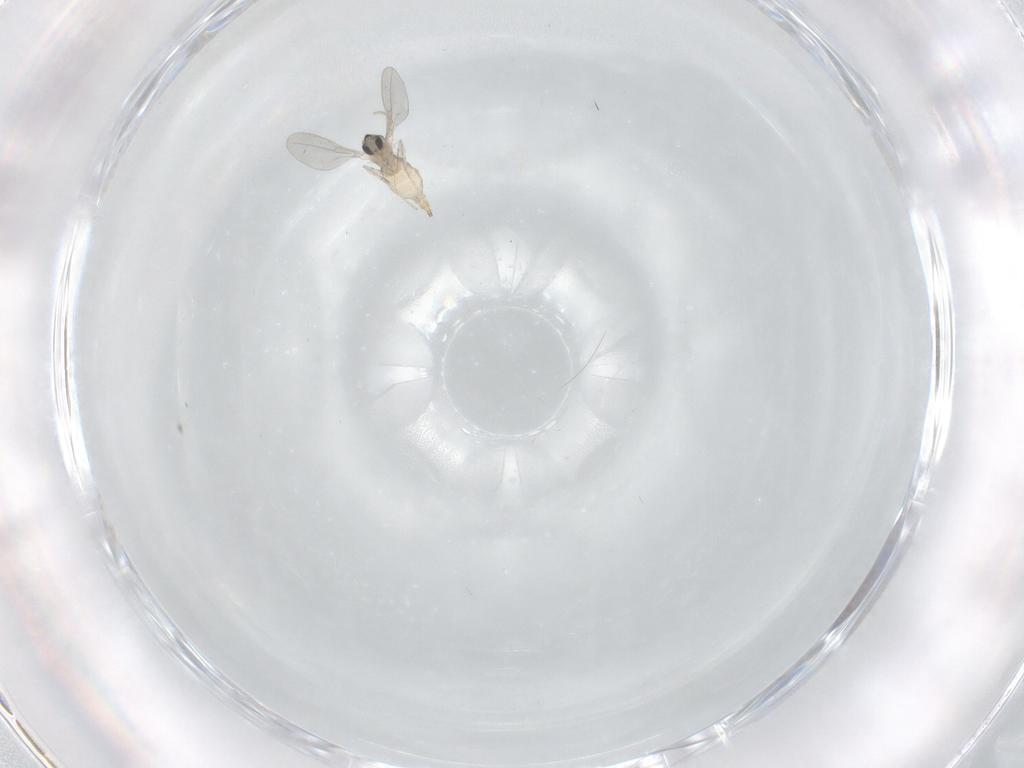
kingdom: Animalia
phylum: Arthropoda
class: Insecta
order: Diptera
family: Cecidomyiidae
